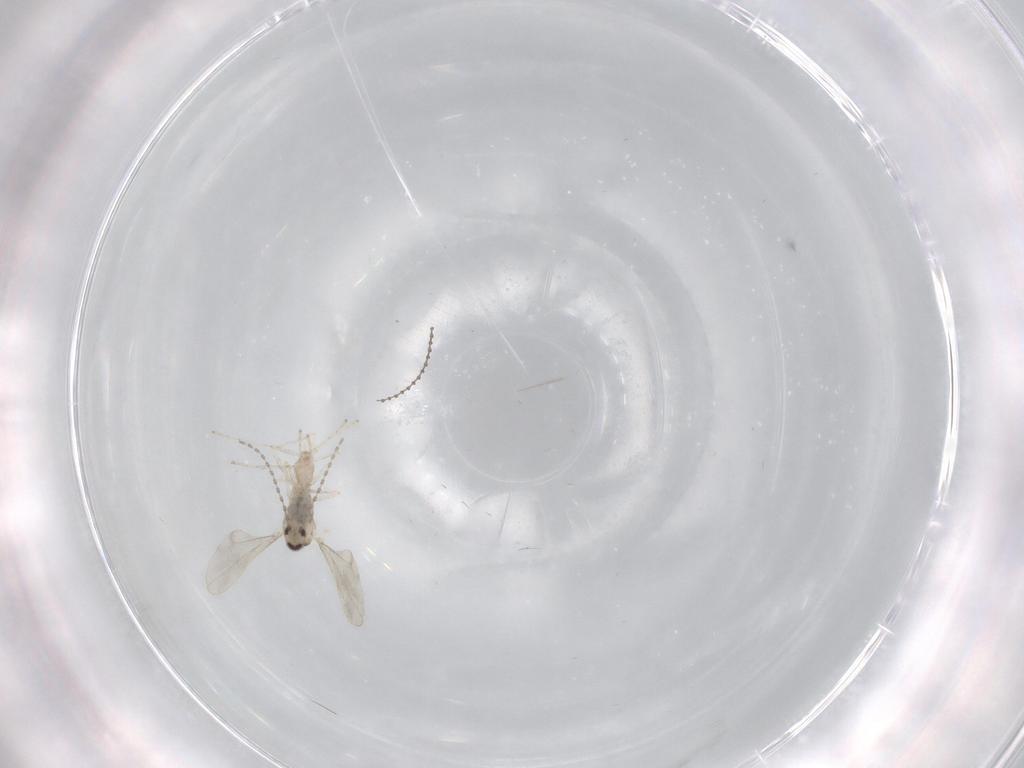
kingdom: Animalia
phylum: Arthropoda
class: Insecta
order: Diptera
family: Cecidomyiidae
